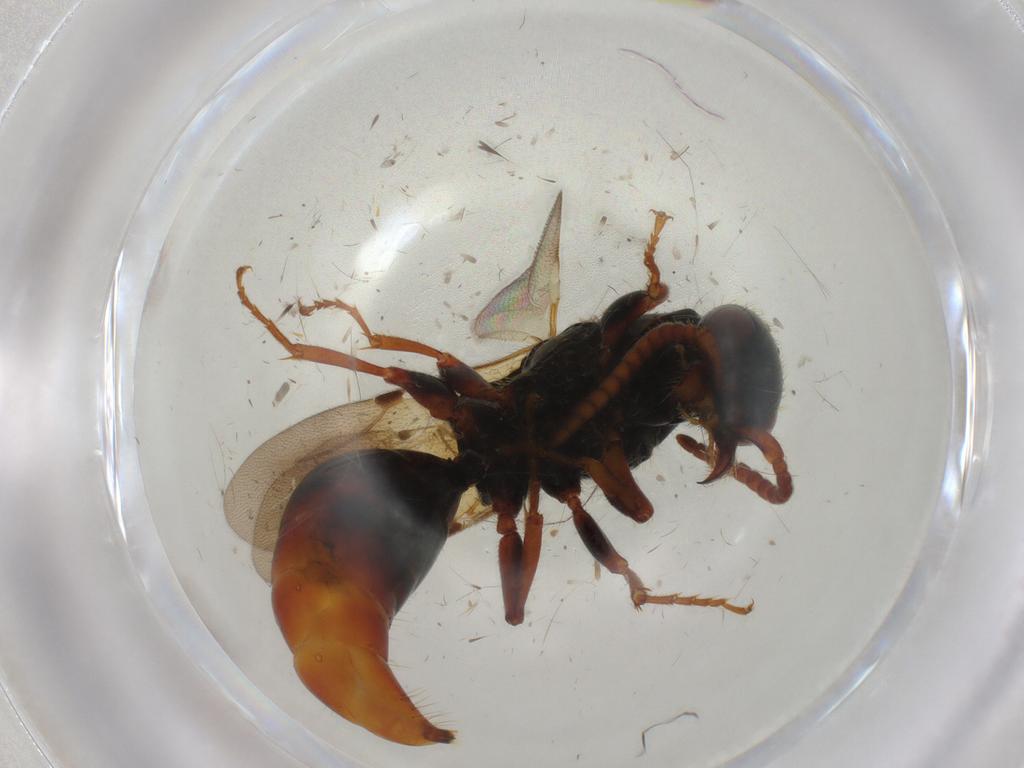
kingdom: Animalia
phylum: Arthropoda
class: Insecta
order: Hymenoptera
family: Bethylidae
